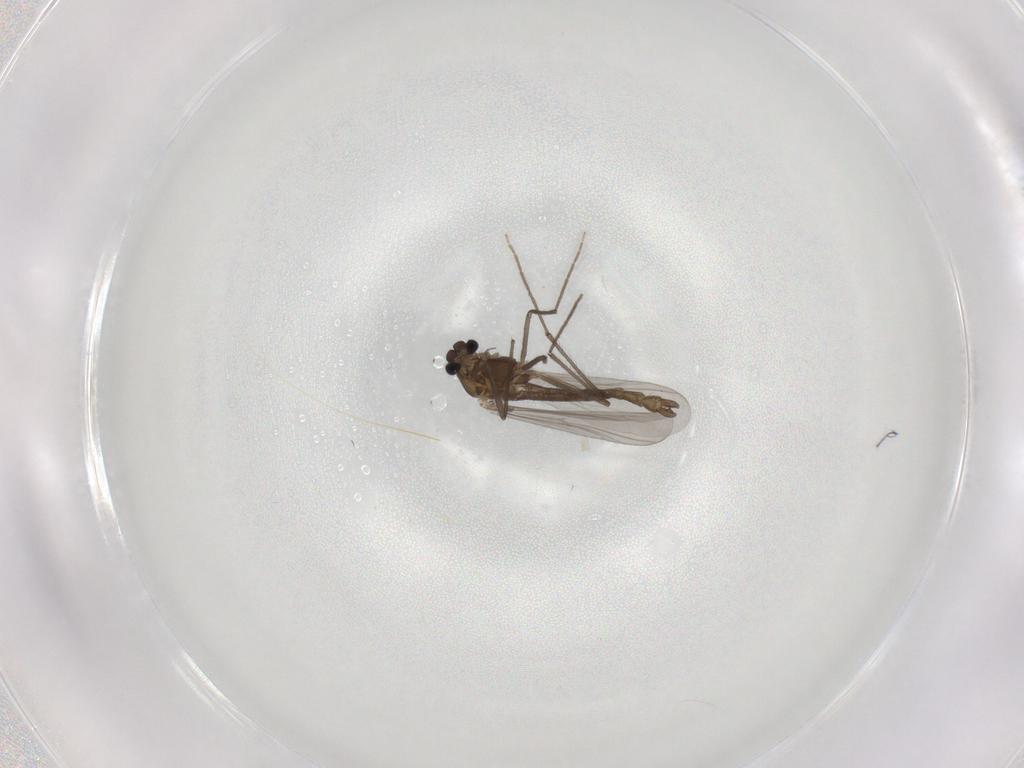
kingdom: Animalia
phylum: Arthropoda
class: Insecta
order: Diptera
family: Chironomidae
